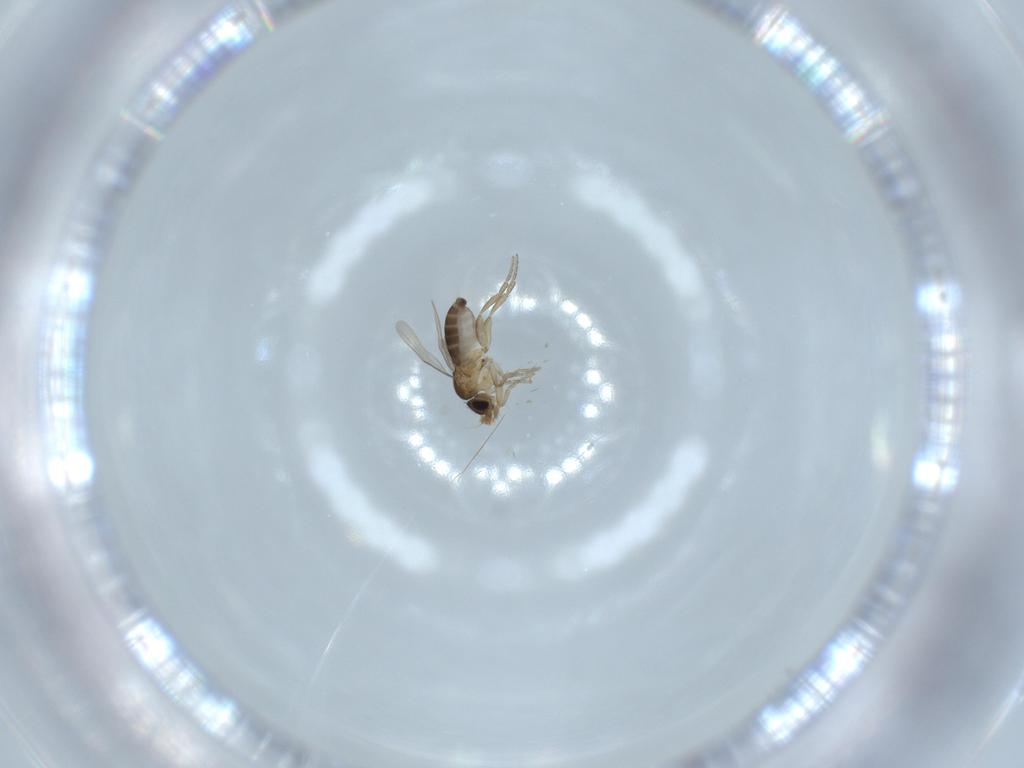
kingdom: Animalia
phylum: Arthropoda
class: Insecta
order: Diptera
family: Phoridae
